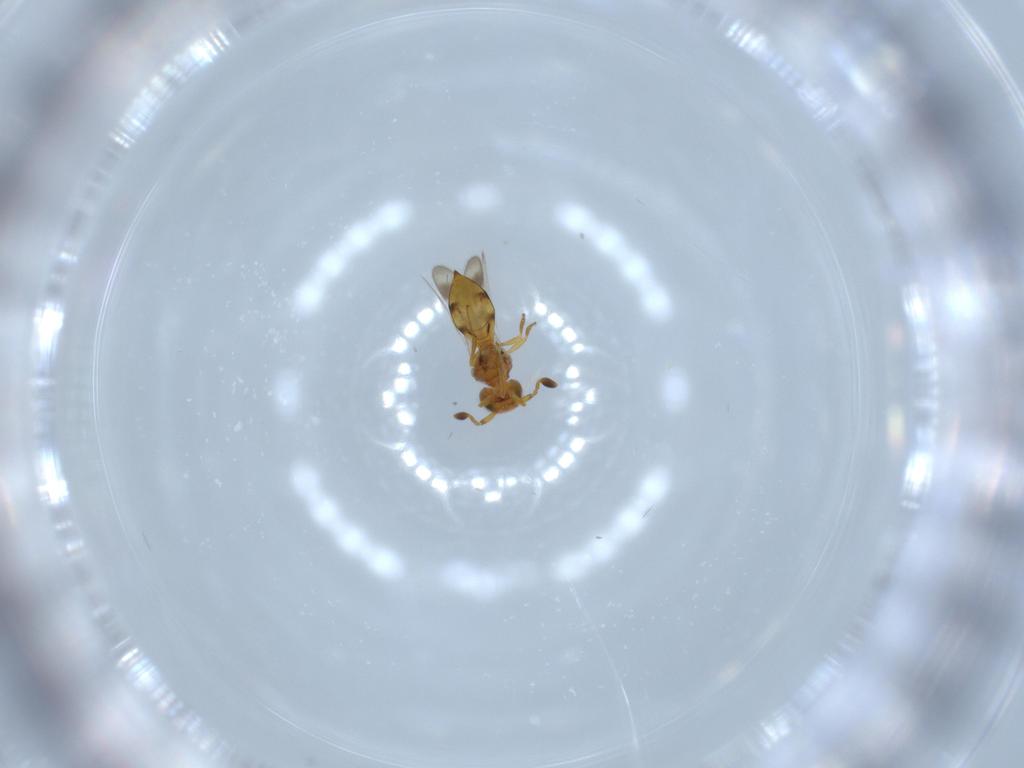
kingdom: Animalia
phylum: Arthropoda
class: Insecta
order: Hymenoptera
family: Scelionidae
